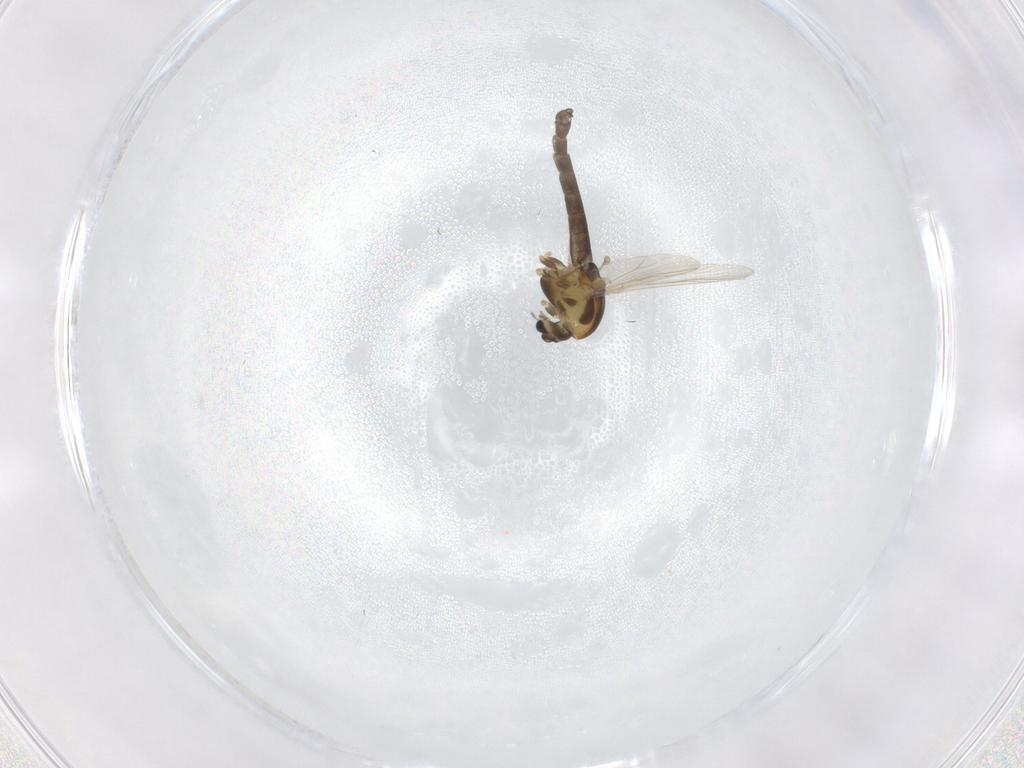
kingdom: Animalia
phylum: Arthropoda
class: Insecta
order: Diptera
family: Chironomidae
